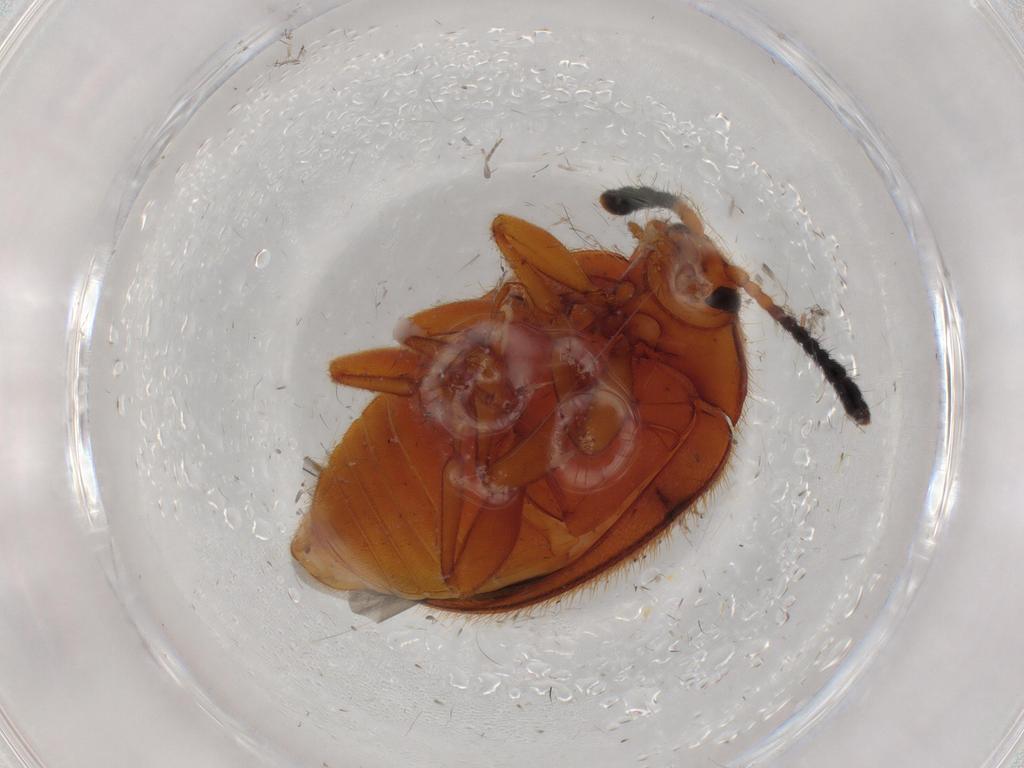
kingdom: Animalia
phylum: Arthropoda
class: Insecta
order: Coleoptera
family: Endomychidae
